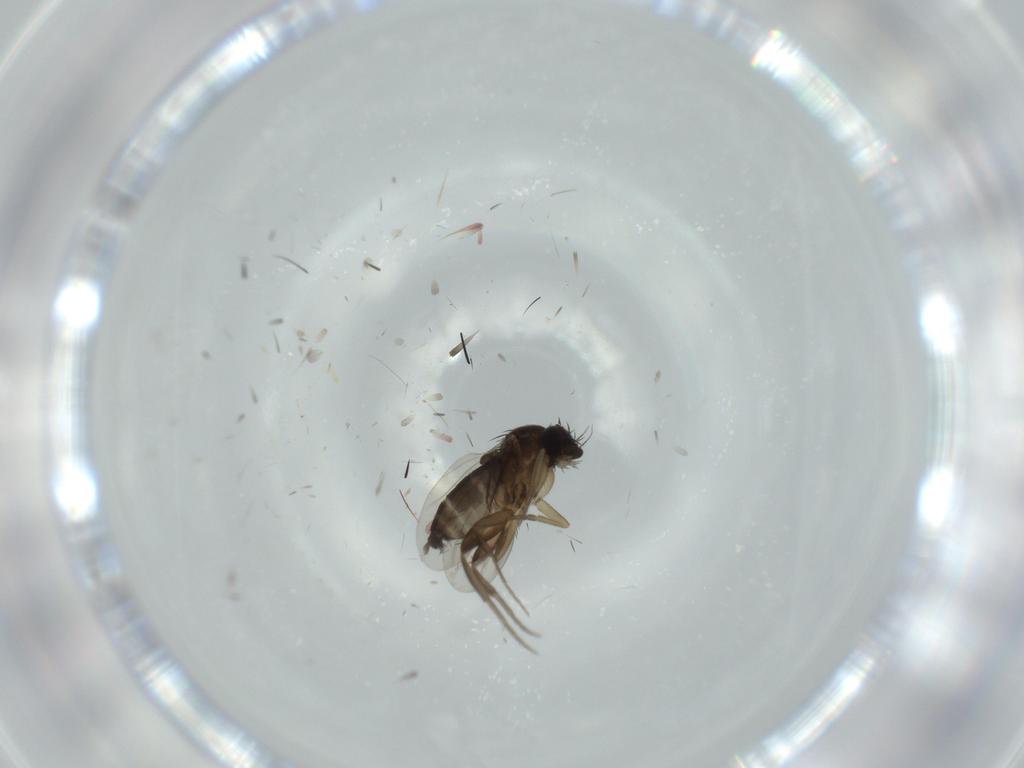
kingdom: Animalia
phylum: Arthropoda
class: Insecta
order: Diptera
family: Phoridae
